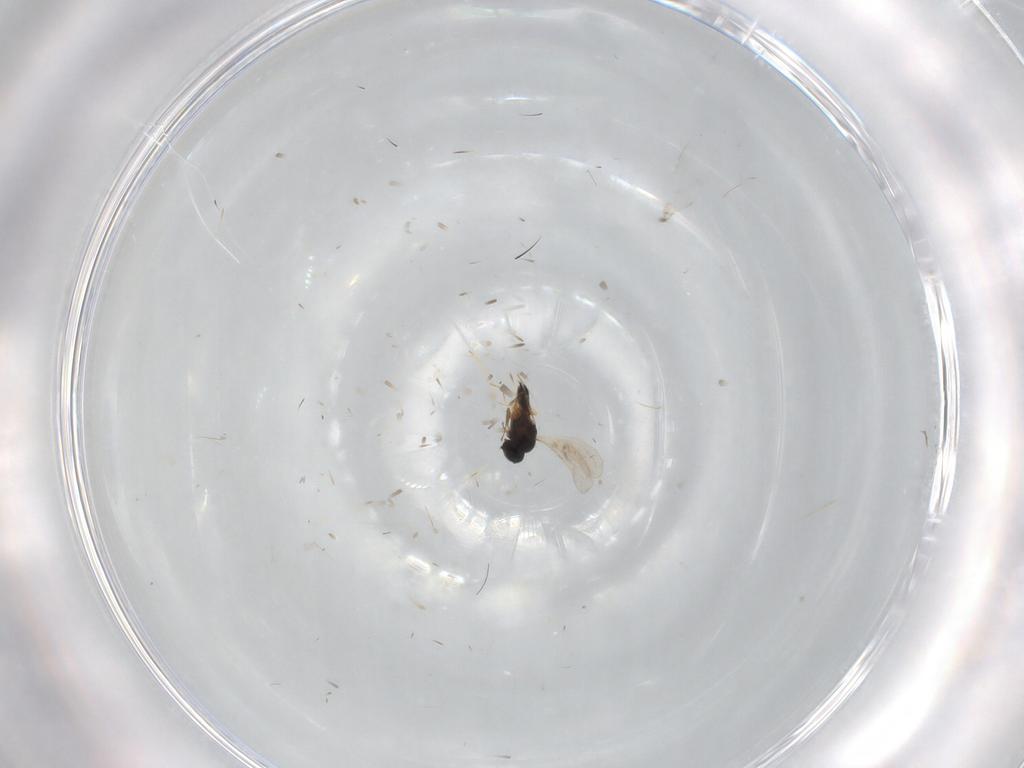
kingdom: Animalia
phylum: Arthropoda
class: Insecta
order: Hymenoptera
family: Scelionidae
